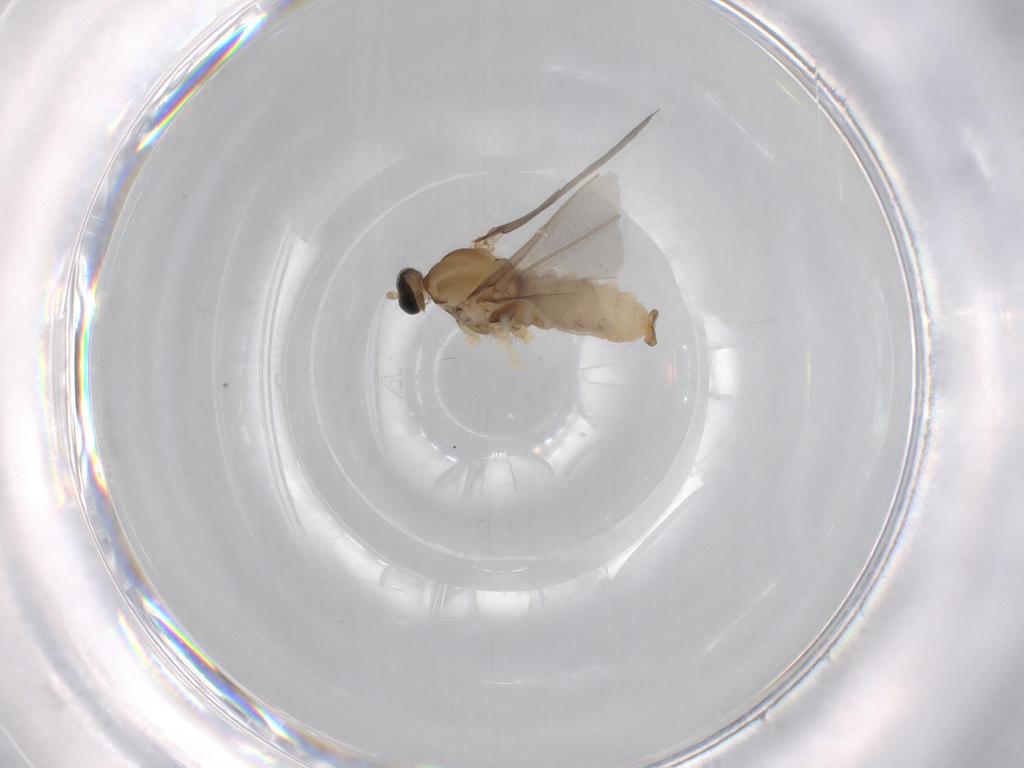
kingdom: Animalia
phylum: Arthropoda
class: Insecta
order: Diptera
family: Cecidomyiidae
